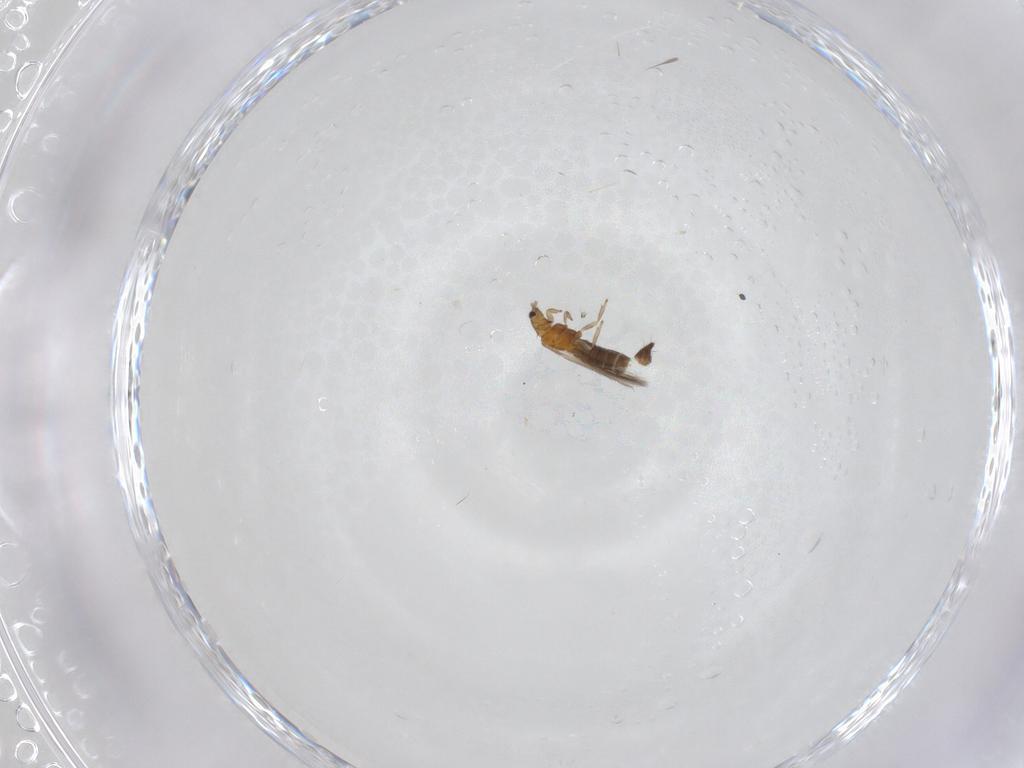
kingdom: Animalia
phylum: Arthropoda
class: Insecta
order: Thysanoptera
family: Thripidae
